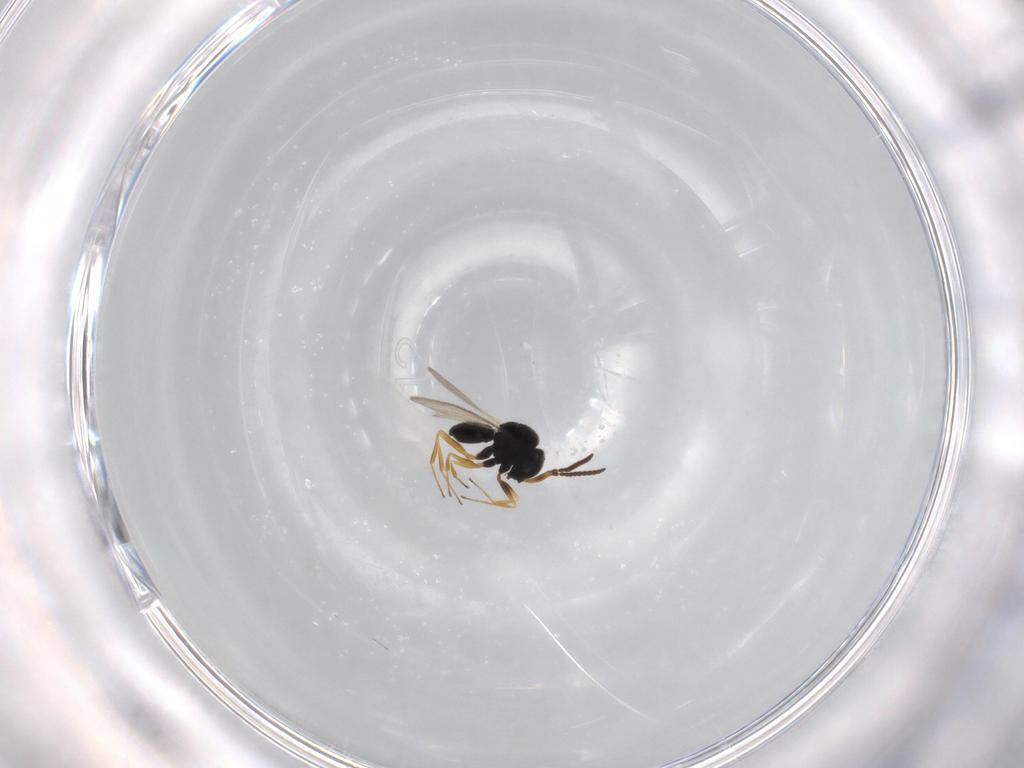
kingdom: Animalia
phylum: Arthropoda
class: Insecta
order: Hymenoptera
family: Scelionidae
